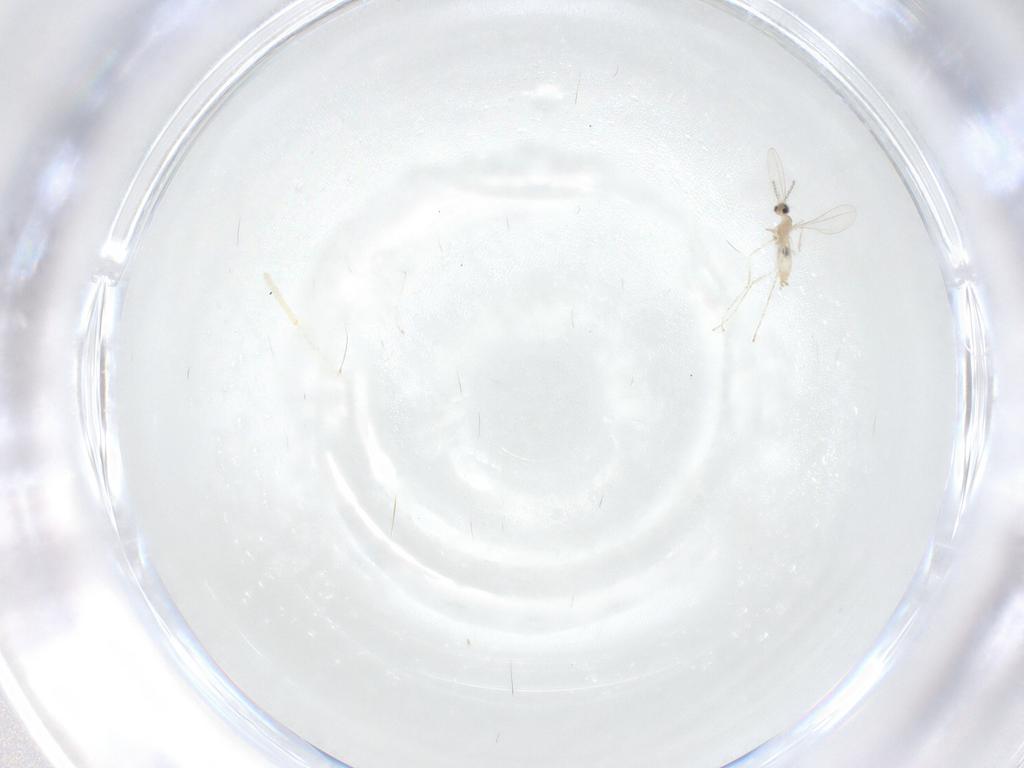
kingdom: Animalia
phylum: Arthropoda
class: Insecta
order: Diptera
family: Cecidomyiidae
